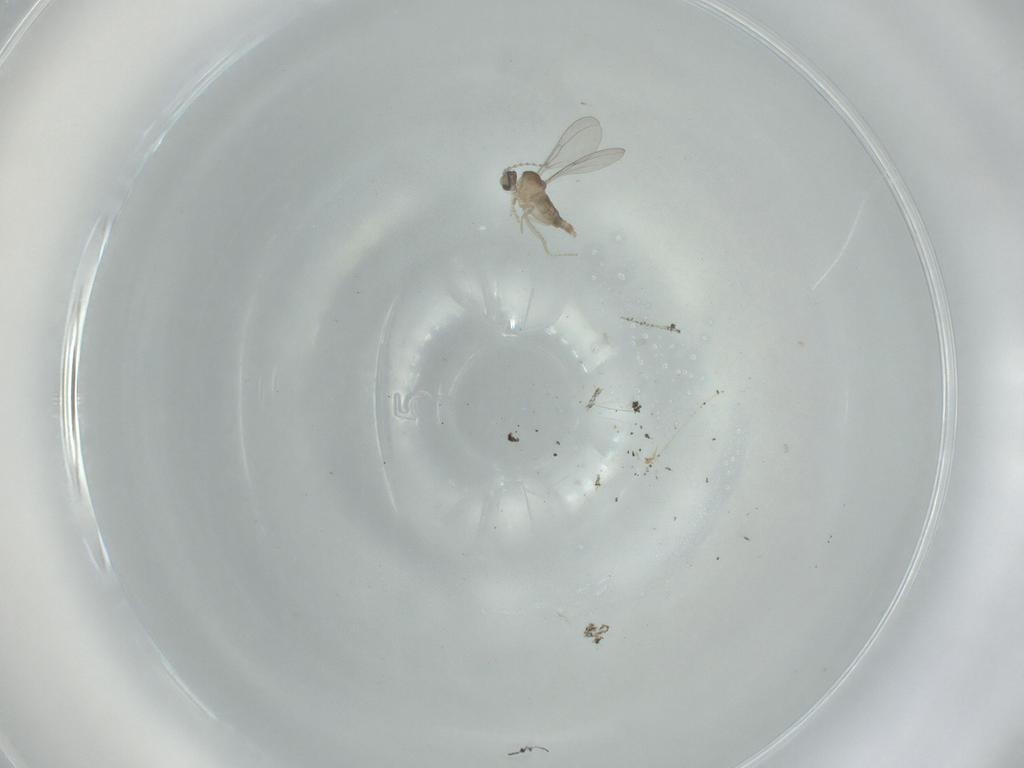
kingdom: Animalia
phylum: Arthropoda
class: Insecta
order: Diptera
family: Cecidomyiidae
